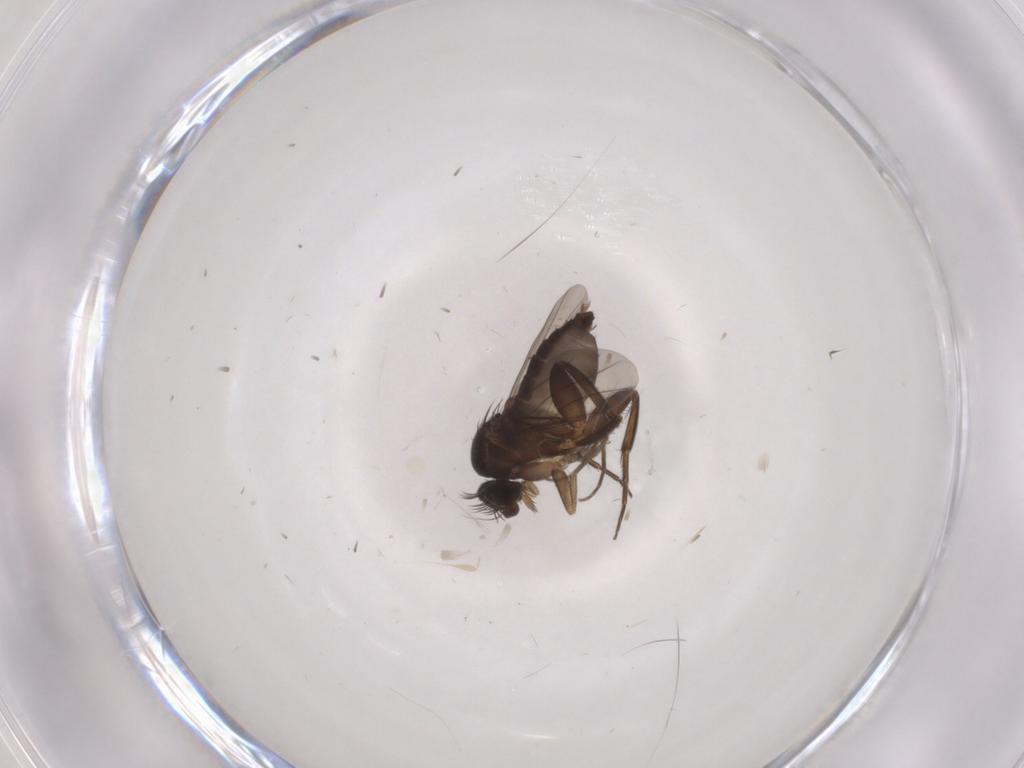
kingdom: Animalia
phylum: Arthropoda
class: Insecta
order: Diptera
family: Phoridae
